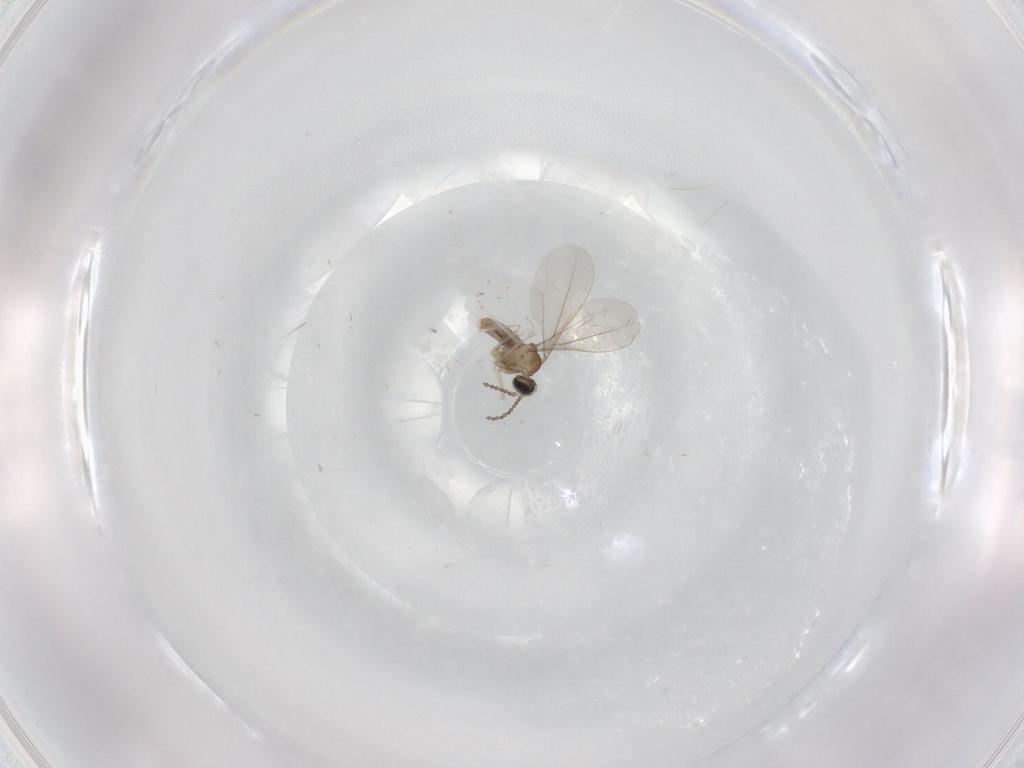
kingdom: Animalia
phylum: Arthropoda
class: Insecta
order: Diptera
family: Cecidomyiidae
